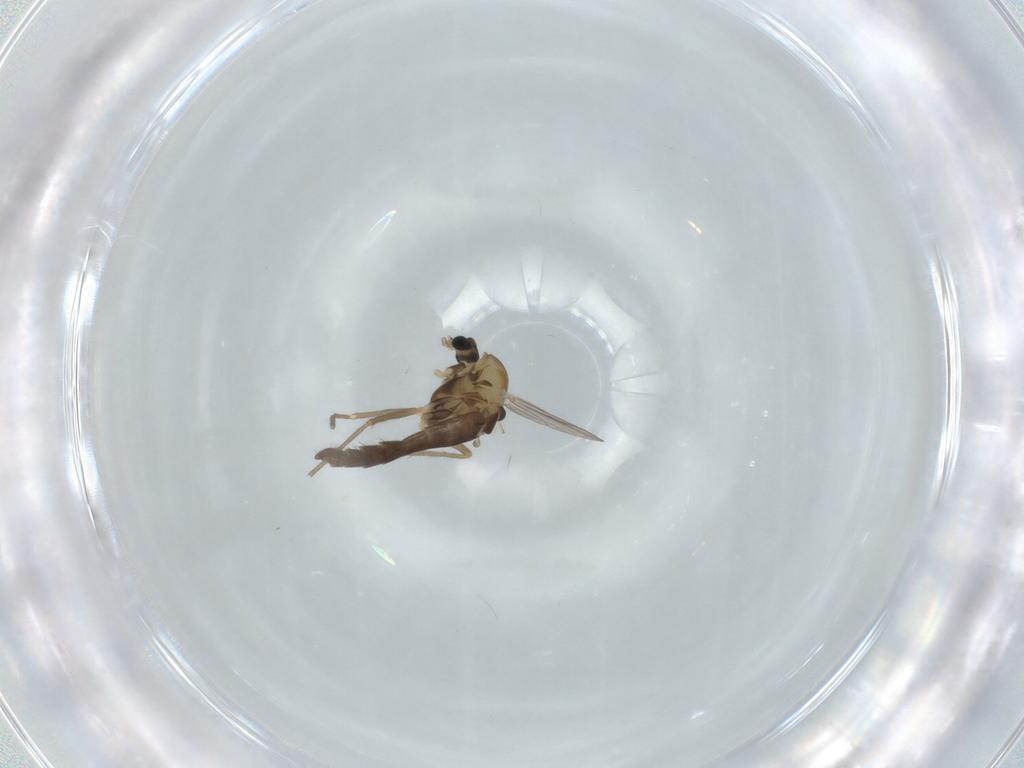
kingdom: Animalia
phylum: Arthropoda
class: Insecta
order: Diptera
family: Chironomidae
